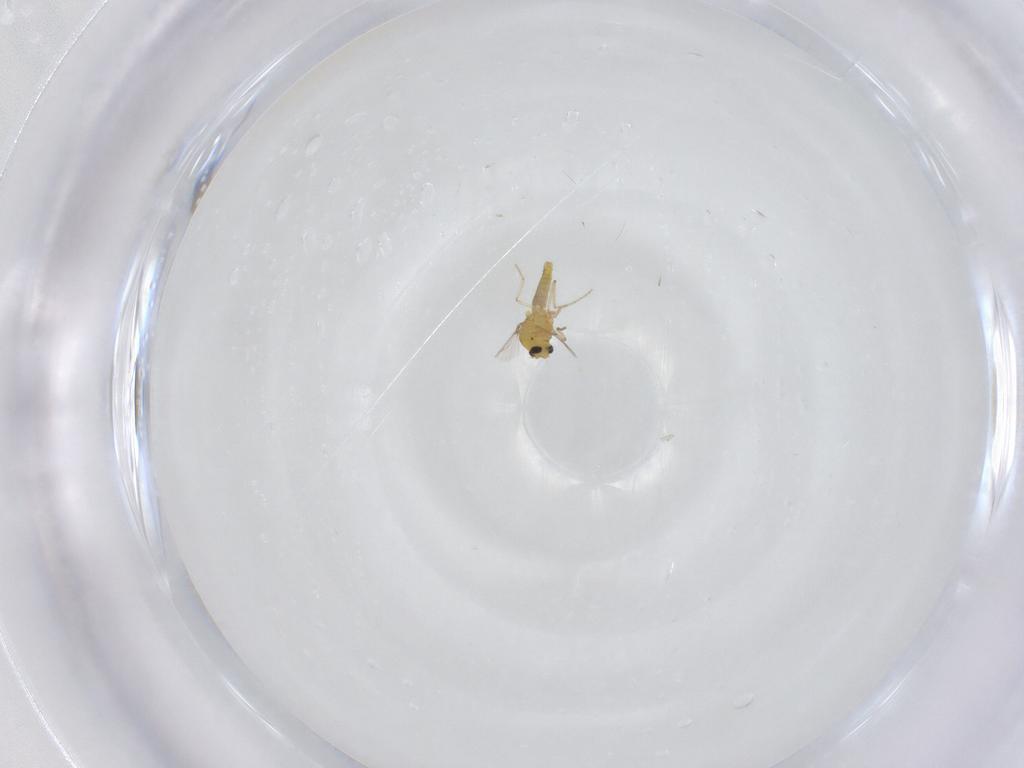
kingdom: Animalia
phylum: Arthropoda
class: Insecta
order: Diptera
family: Ceratopogonidae
